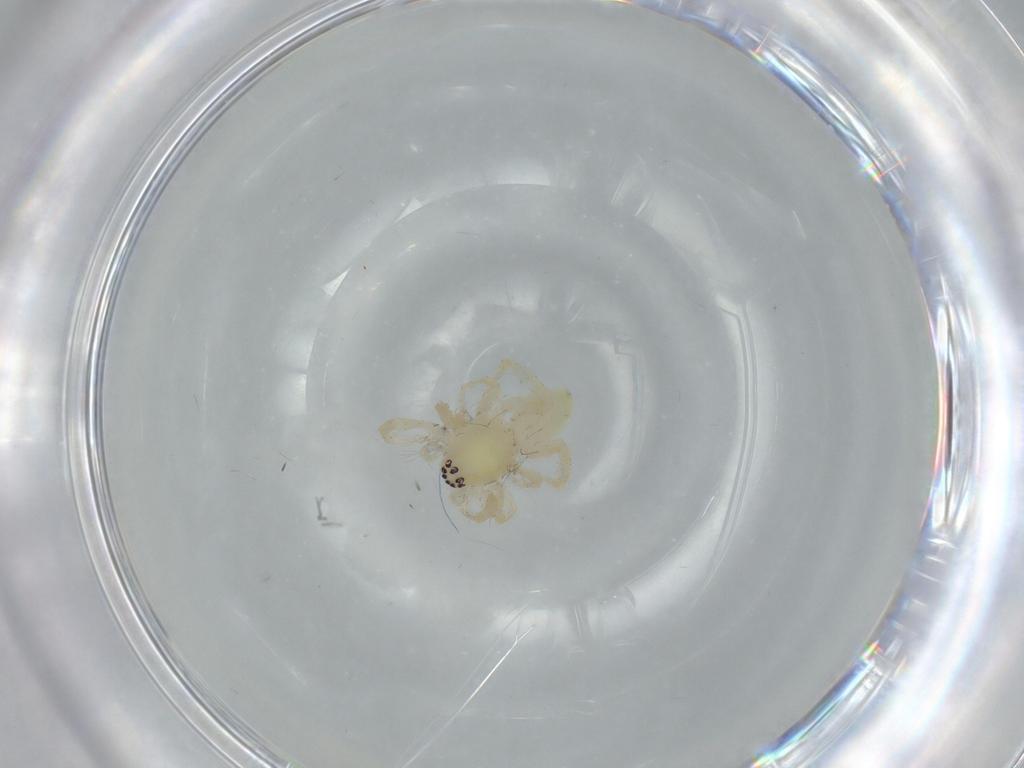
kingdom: Animalia
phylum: Arthropoda
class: Arachnida
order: Araneae
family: Anyphaenidae
